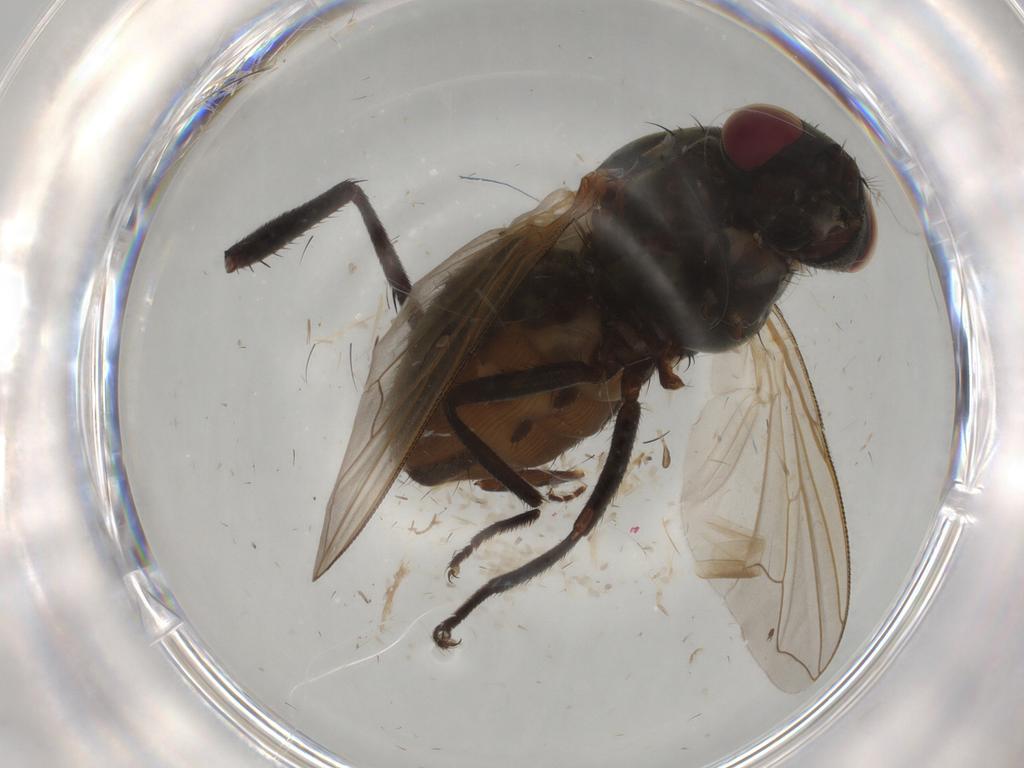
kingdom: Animalia
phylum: Arthropoda
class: Insecta
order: Diptera
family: Muscidae
